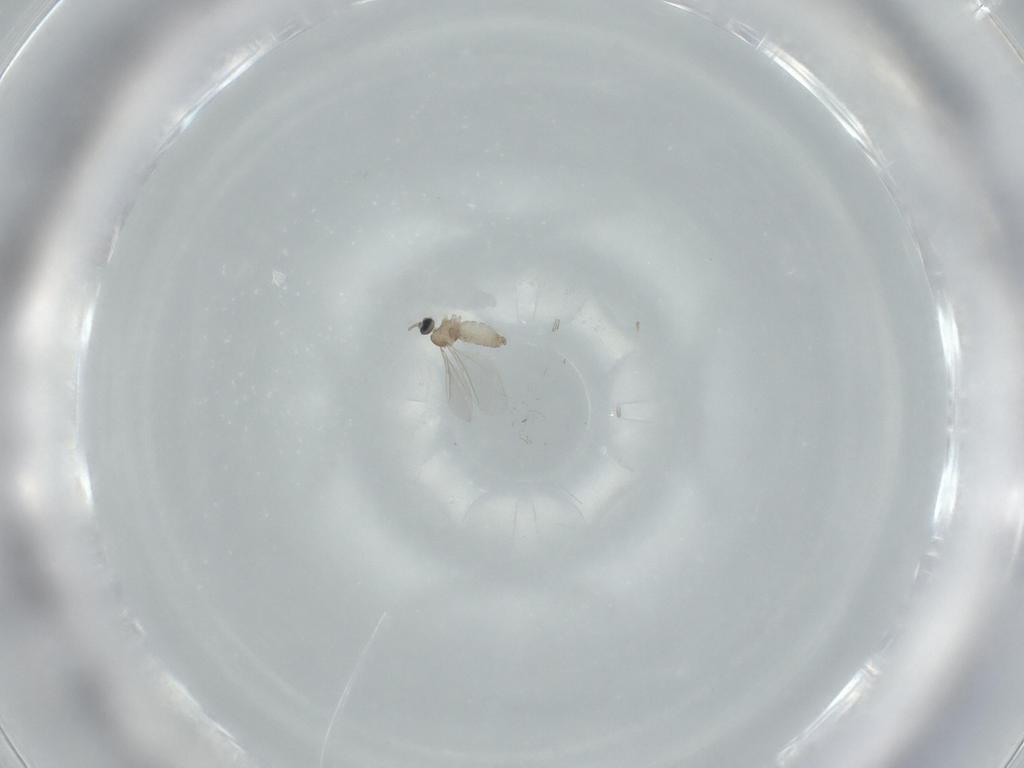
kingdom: Animalia
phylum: Arthropoda
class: Insecta
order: Diptera
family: Cecidomyiidae
